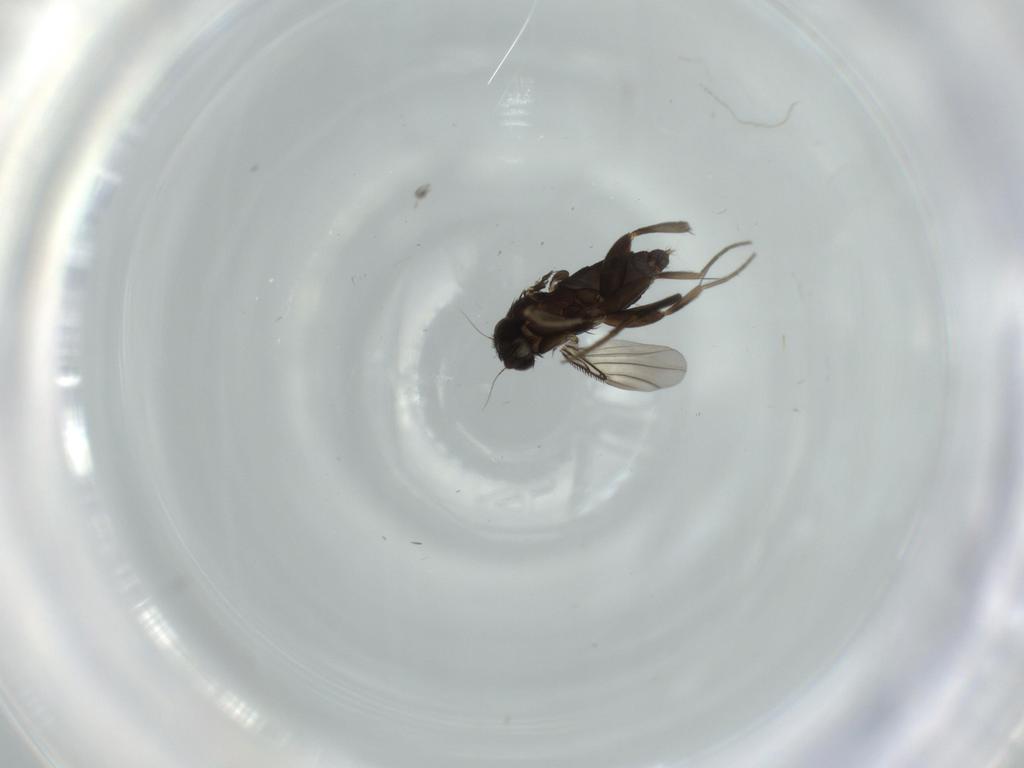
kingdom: Animalia
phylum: Arthropoda
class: Insecta
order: Diptera
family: Phoridae
